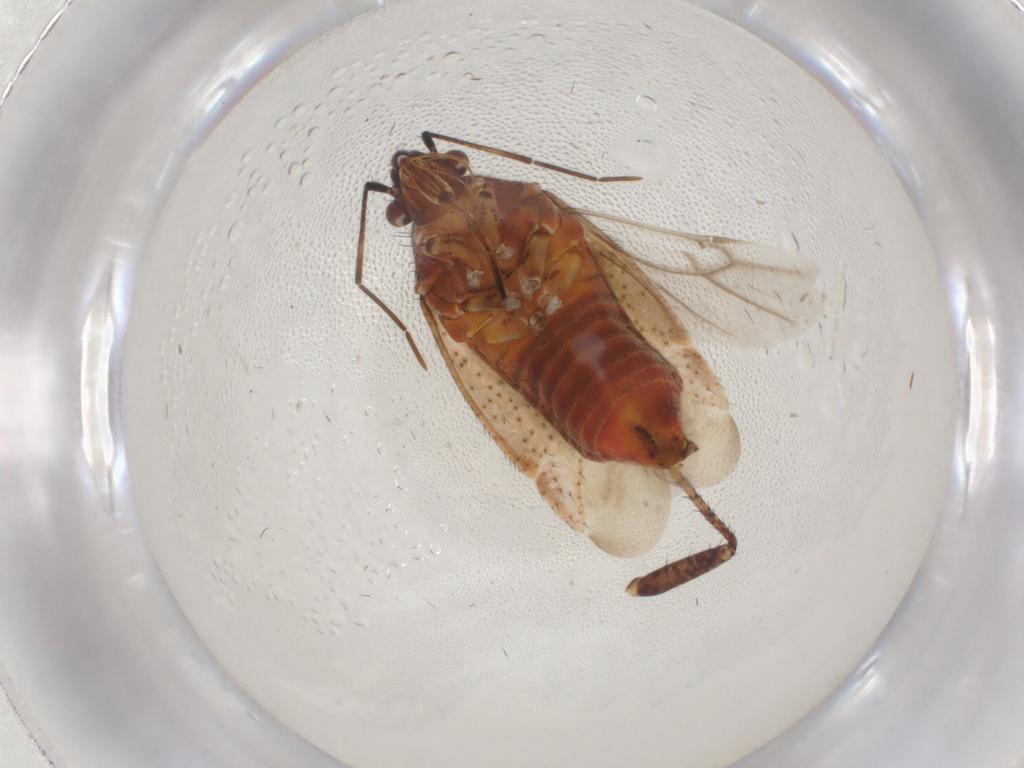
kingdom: Animalia
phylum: Arthropoda
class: Insecta
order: Hemiptera
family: Miridae
